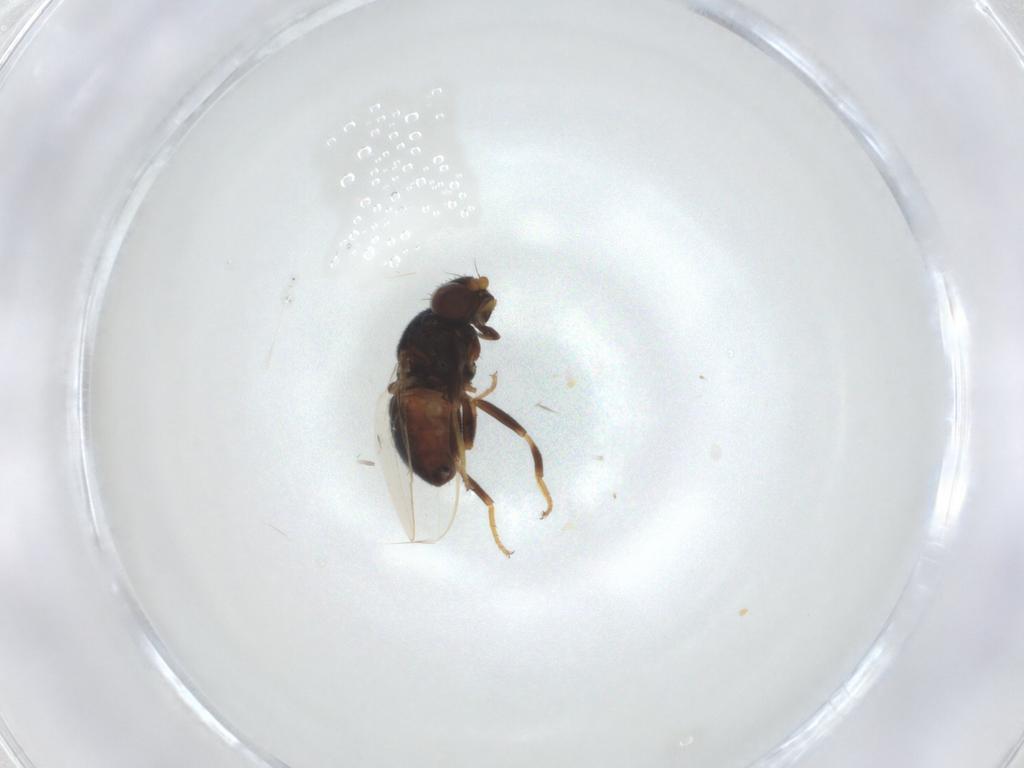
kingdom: Animalia
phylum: Arthropoda
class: Insecta
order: Diptera
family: Chloropidae
